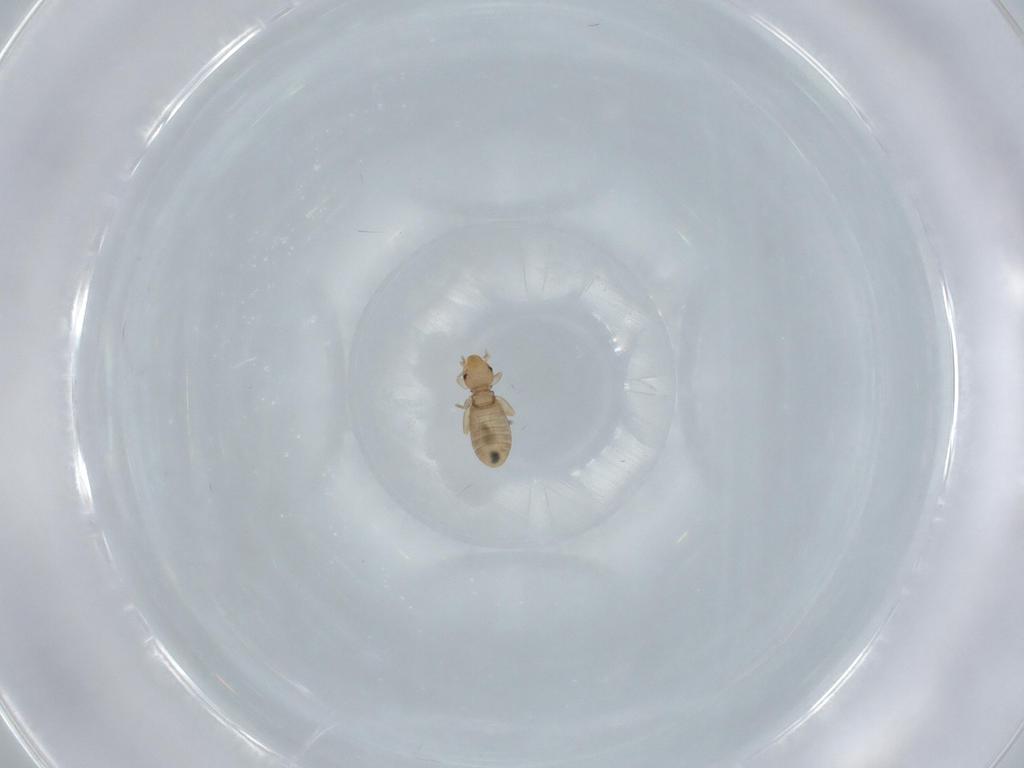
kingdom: Animalia
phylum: Arthropoda
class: Insecta
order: Psocodea
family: Liposcelididae
